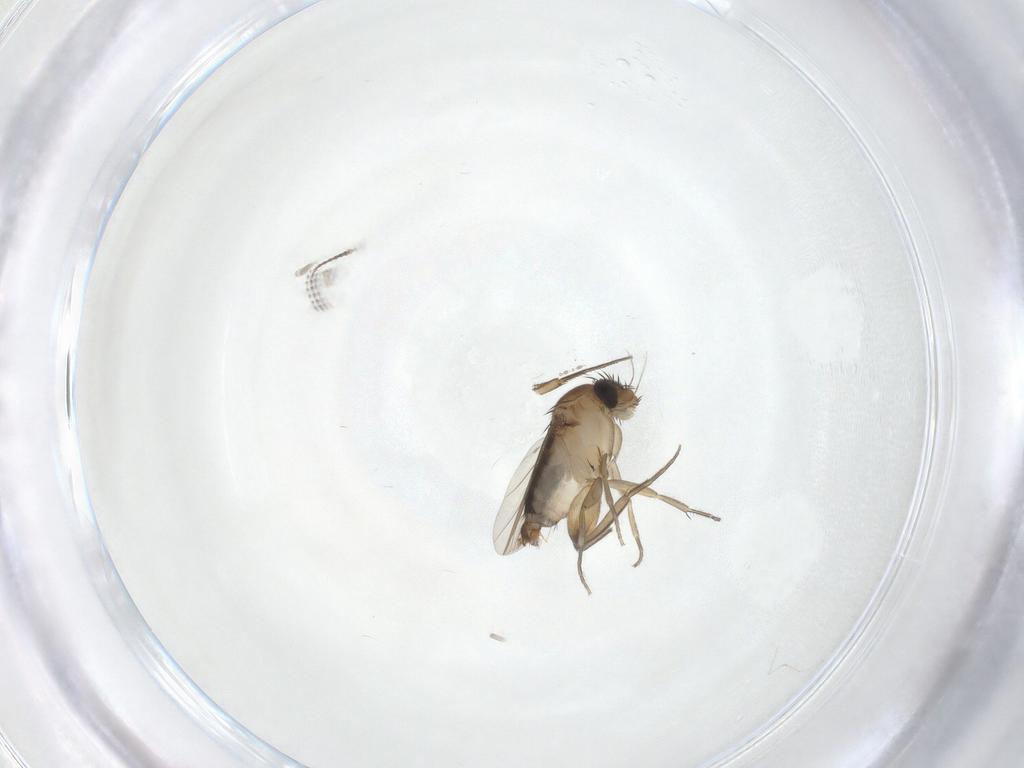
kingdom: Animalia
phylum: Arthropoda
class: Insecta
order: Diptera
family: Phoridae
